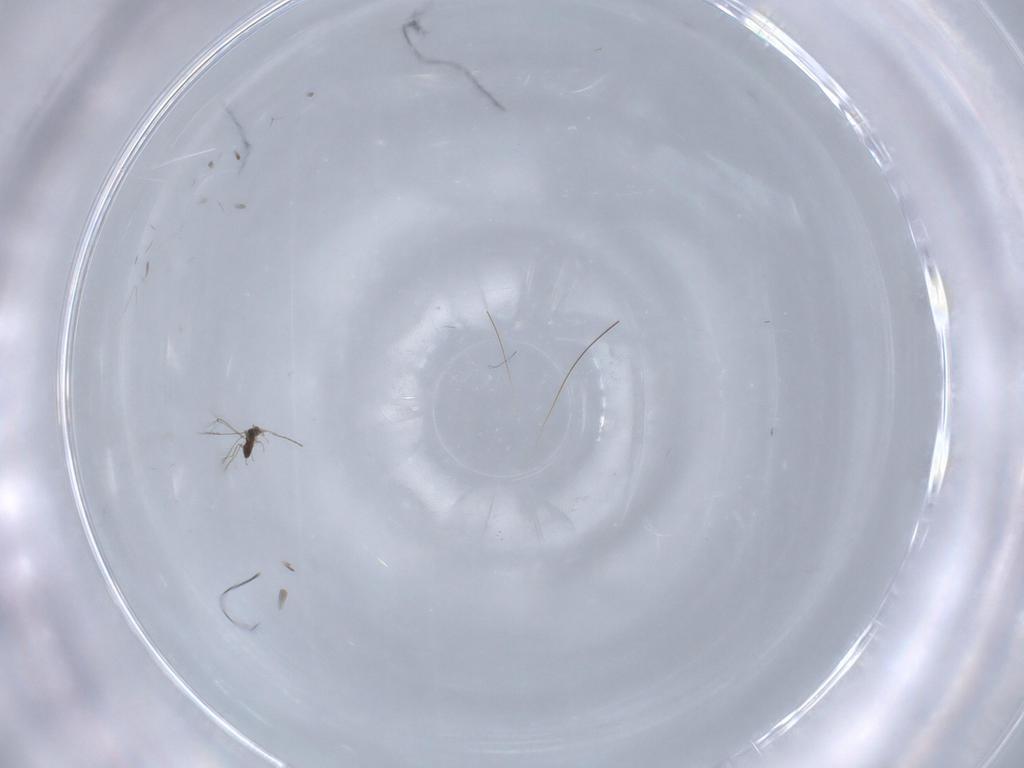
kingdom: Animalia
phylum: Arthropoda
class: Insecta
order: Hymenoptera
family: Mymaridae
